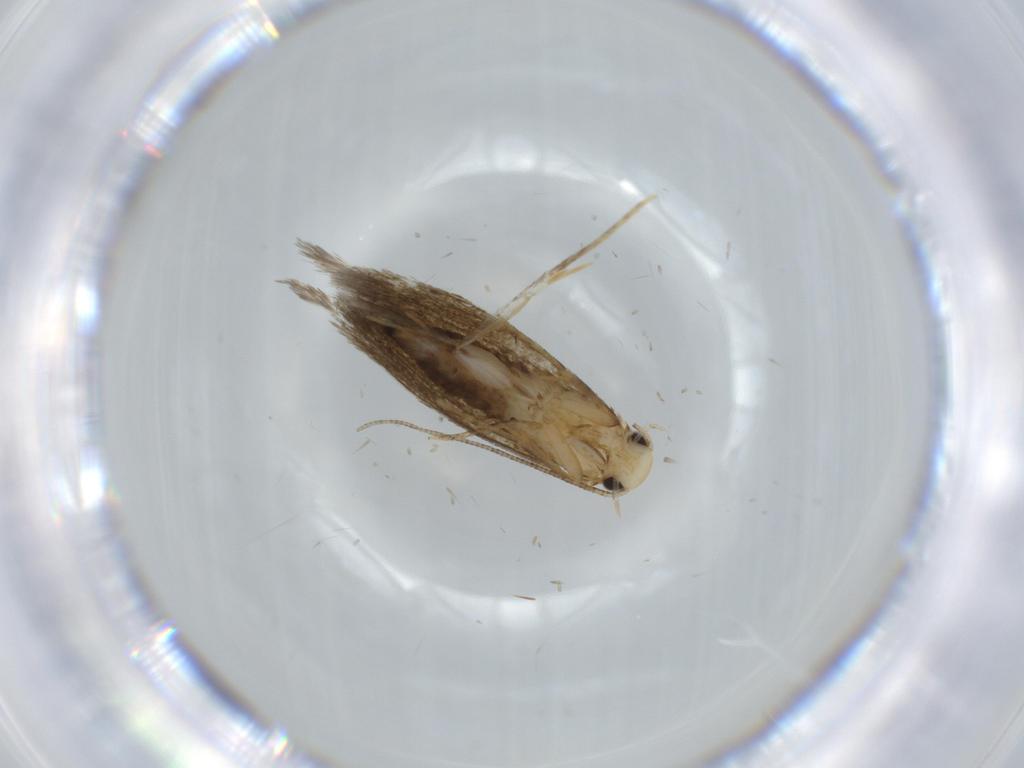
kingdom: Animalia
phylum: Arthropoda
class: Insecta
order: Lepidoptera
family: Tineidae
